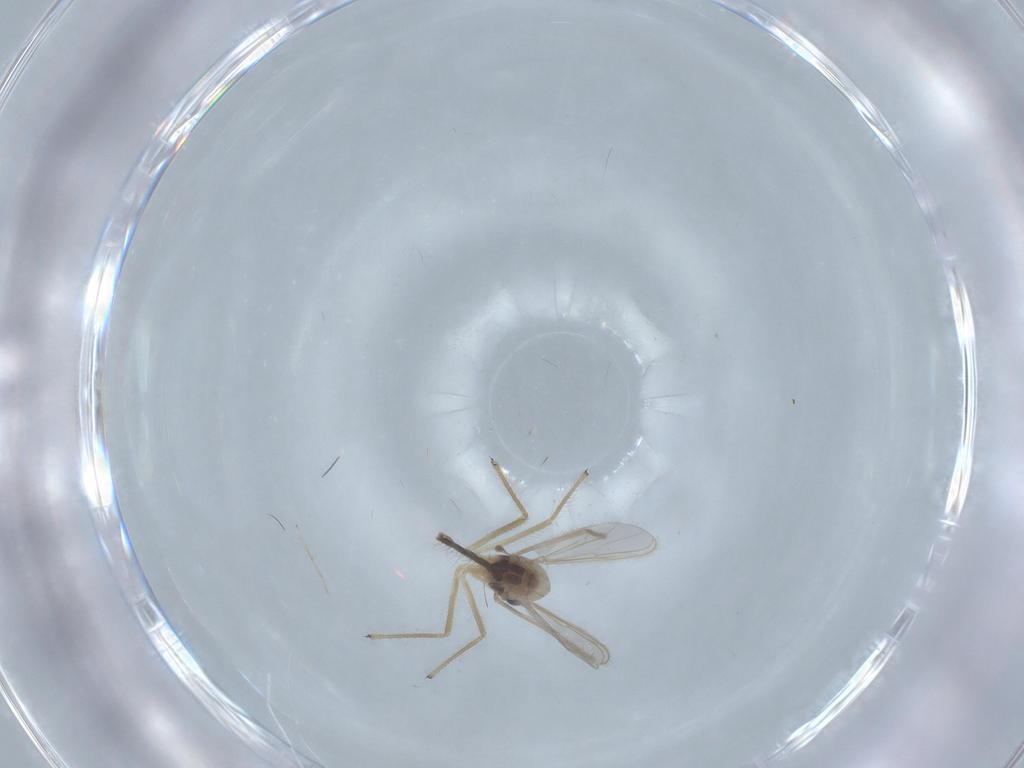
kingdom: Animalia
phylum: Arthropoda
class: Insecta
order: Diptera
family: Chironomidae
